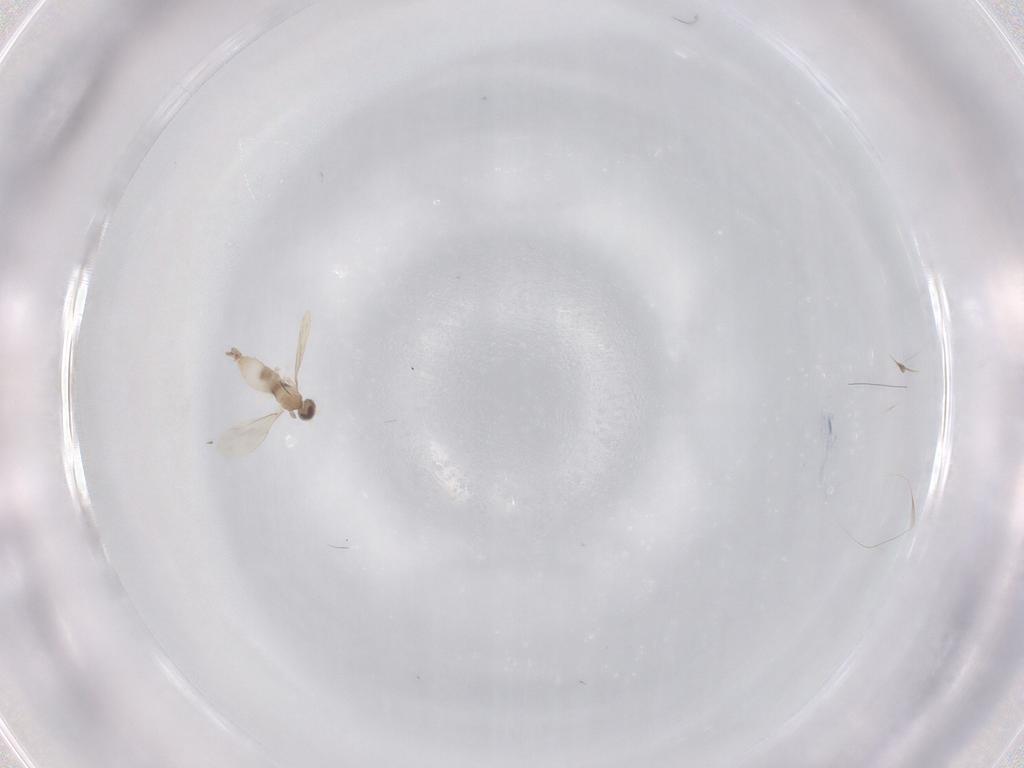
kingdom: Animalia
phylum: Arthropoda
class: Insecta
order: Diptera
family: Cecidomyiidae
